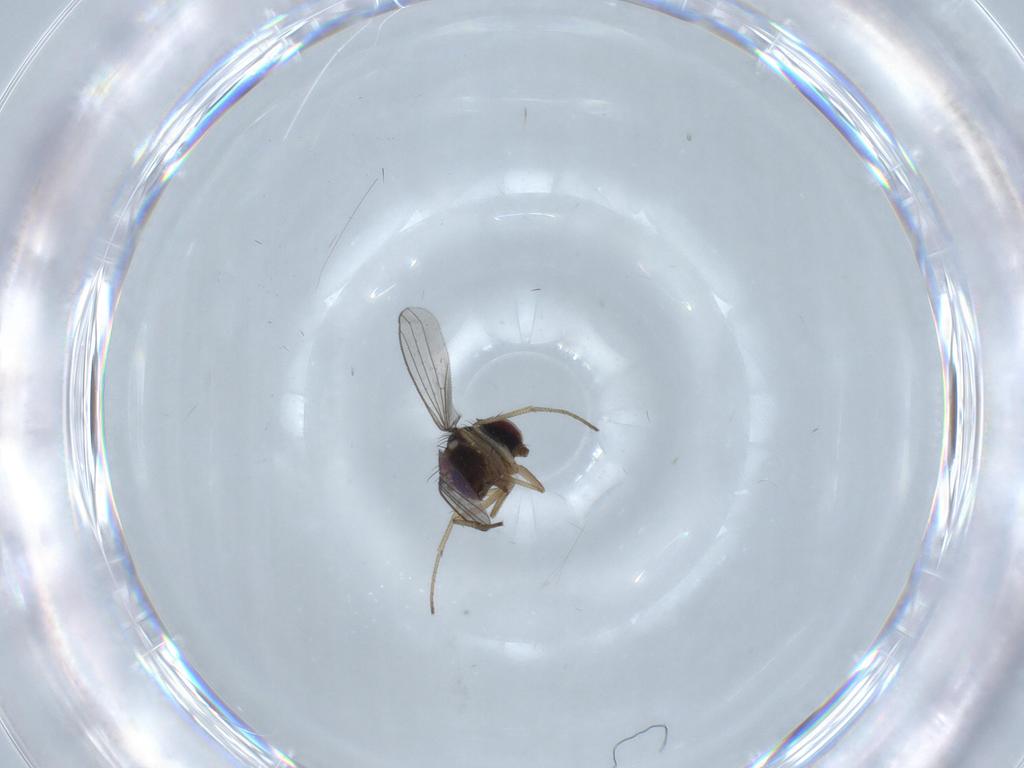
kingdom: Animalia
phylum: Arthropoda
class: Insecta
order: Diptera
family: Dolichopodidae
